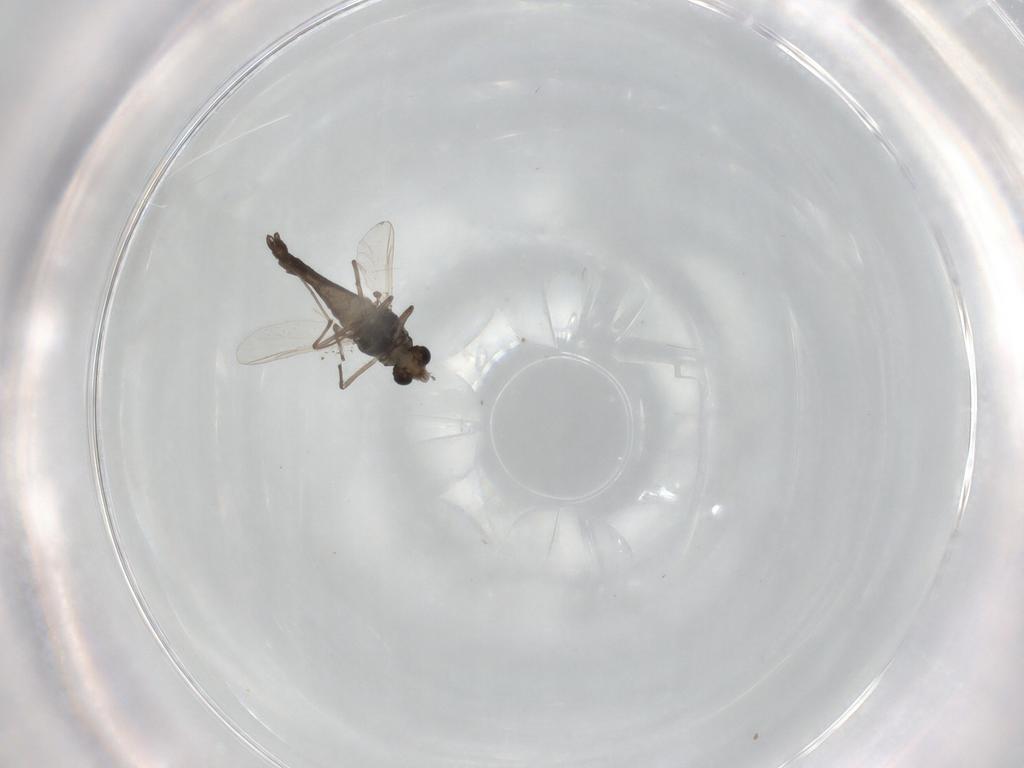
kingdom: Animalia
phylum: Arthropoda
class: Insecta
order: Diptera
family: Chironomidae
